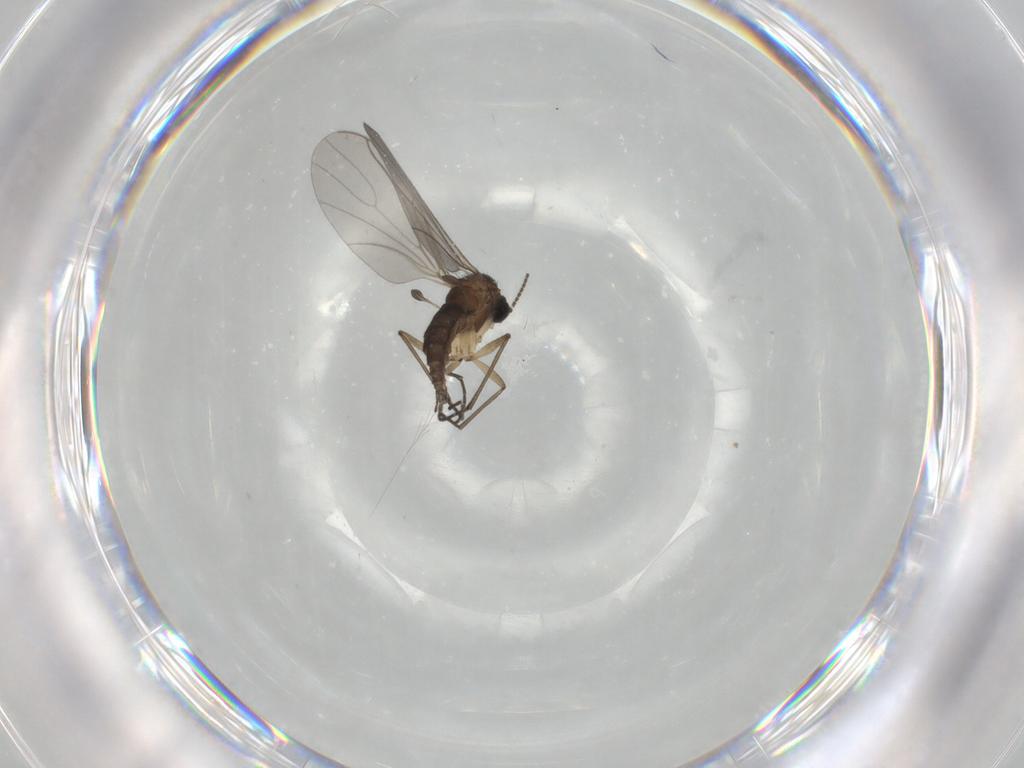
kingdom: Animalia
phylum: Arthropoda
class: Insecta
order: Diptera
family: Sciaridae
